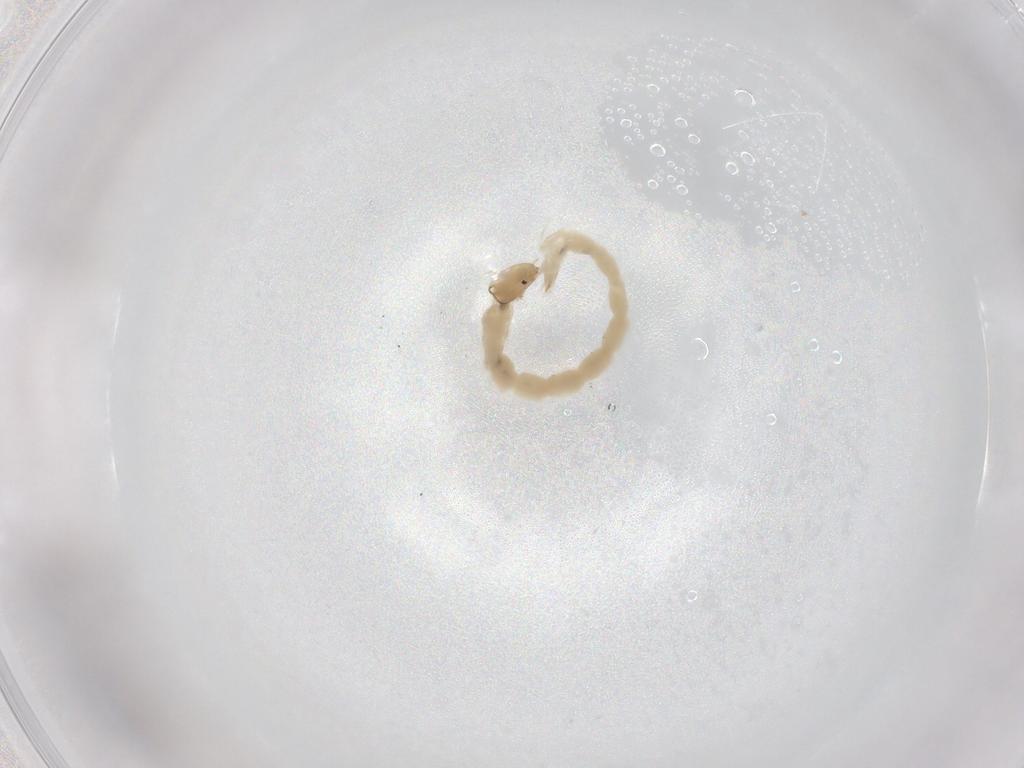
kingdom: Animalia
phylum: Arthropoda
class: Insecta
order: Diptera
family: Chironomidae
